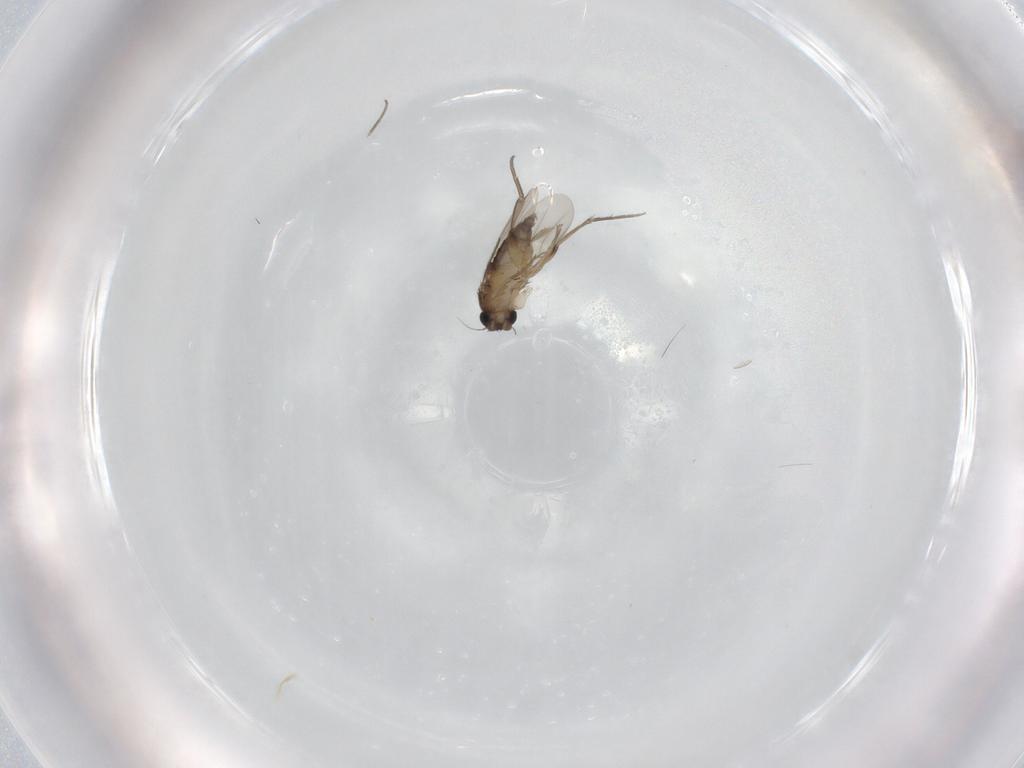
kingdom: Animalia
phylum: Arthropoda
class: Insecta
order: Diptera
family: Phoridae
